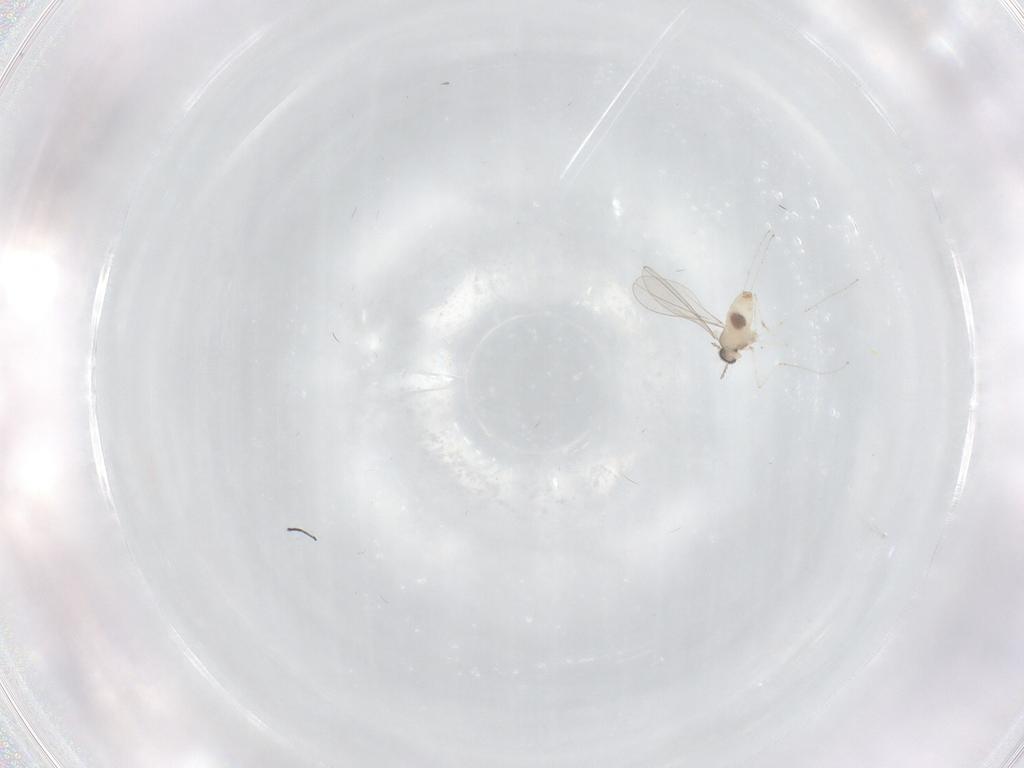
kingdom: Animalia
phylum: Arthropoda
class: Insecta
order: Diptera
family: Cecidomyiidae
